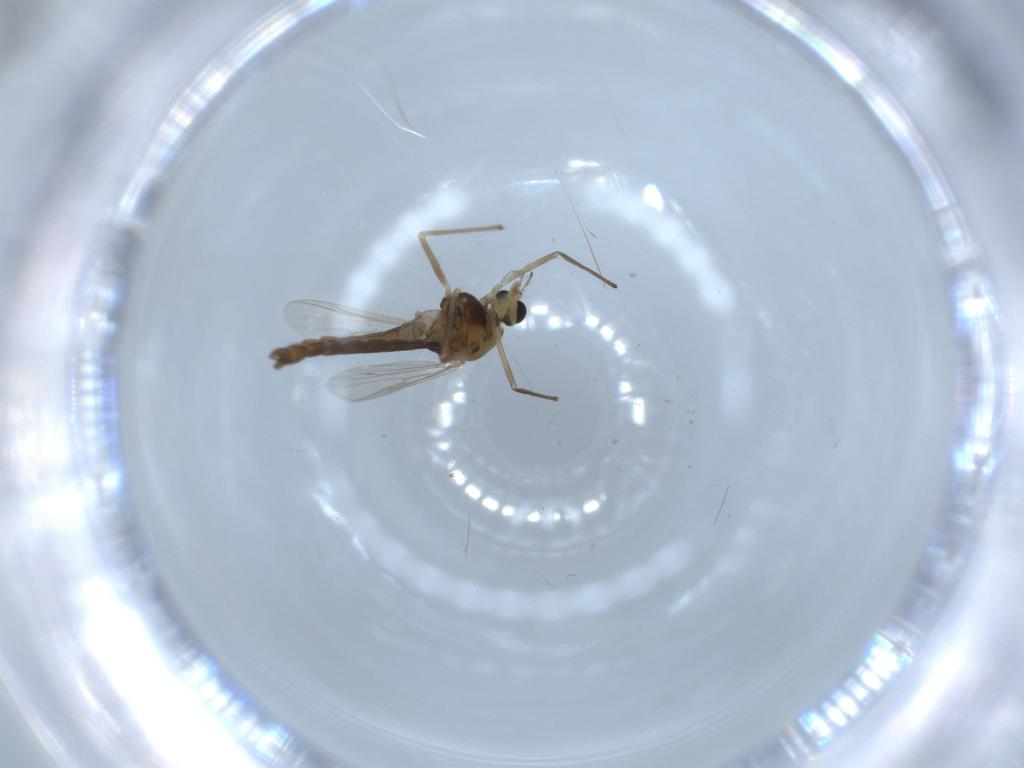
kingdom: Animalia
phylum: Arthropoda
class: Insecta
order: Diptera
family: Chironomidae
